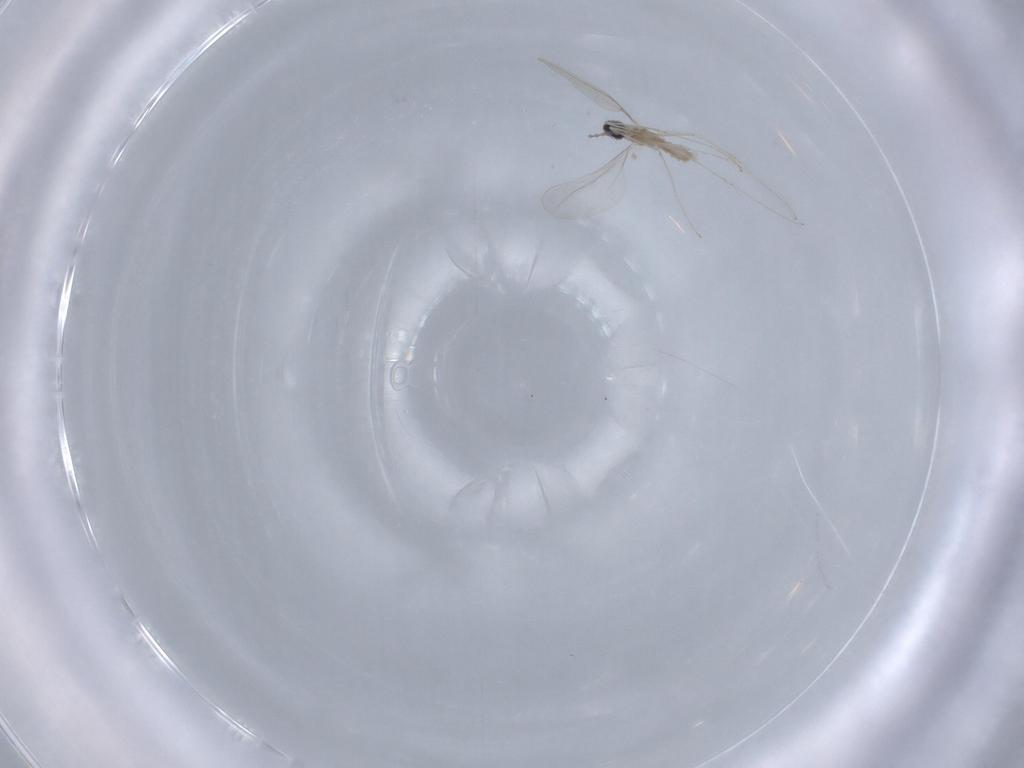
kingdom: Animalia
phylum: Arthropoda
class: Insecta
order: Diptera
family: Cecidomyiidae
